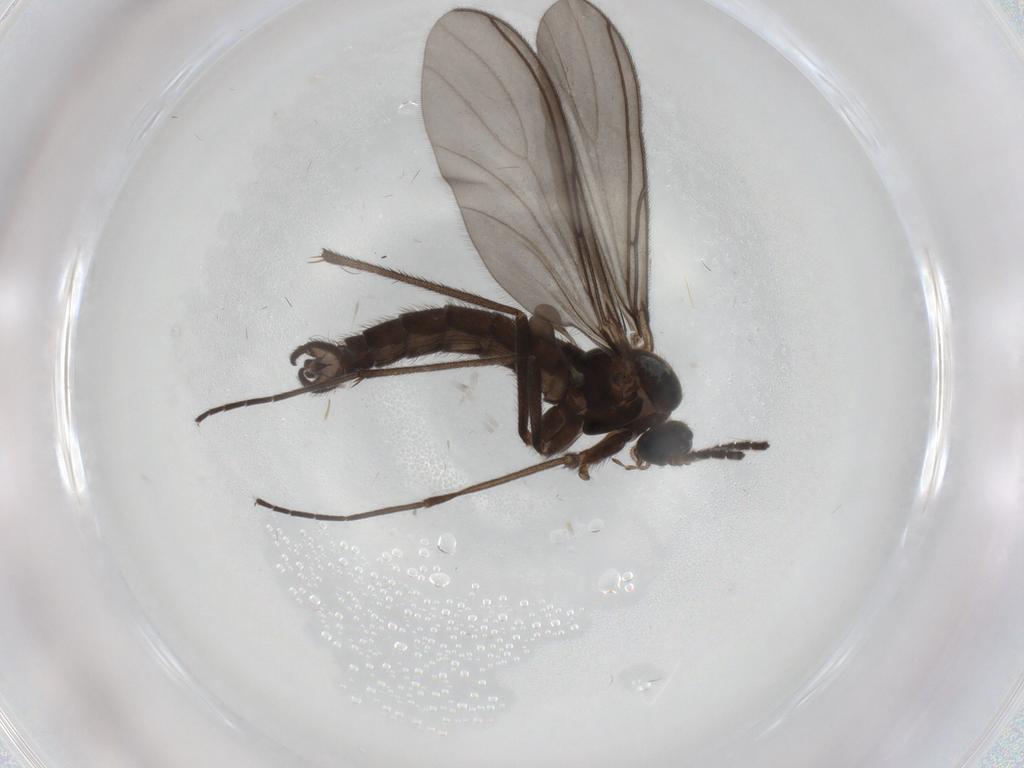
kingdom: Animalia
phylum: Arthropoda
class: Insecta
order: Diptera
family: Sciaridae
